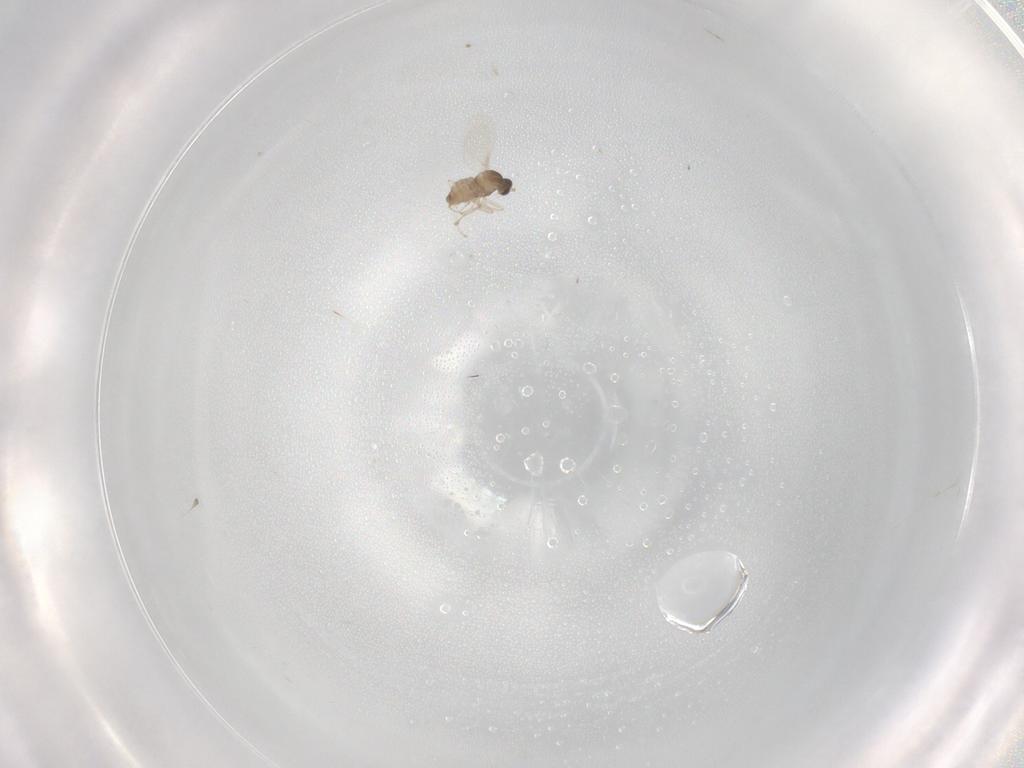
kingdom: Animalia
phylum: Arthropoda
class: Insecta
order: Diptera
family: Cecidomyiidae
